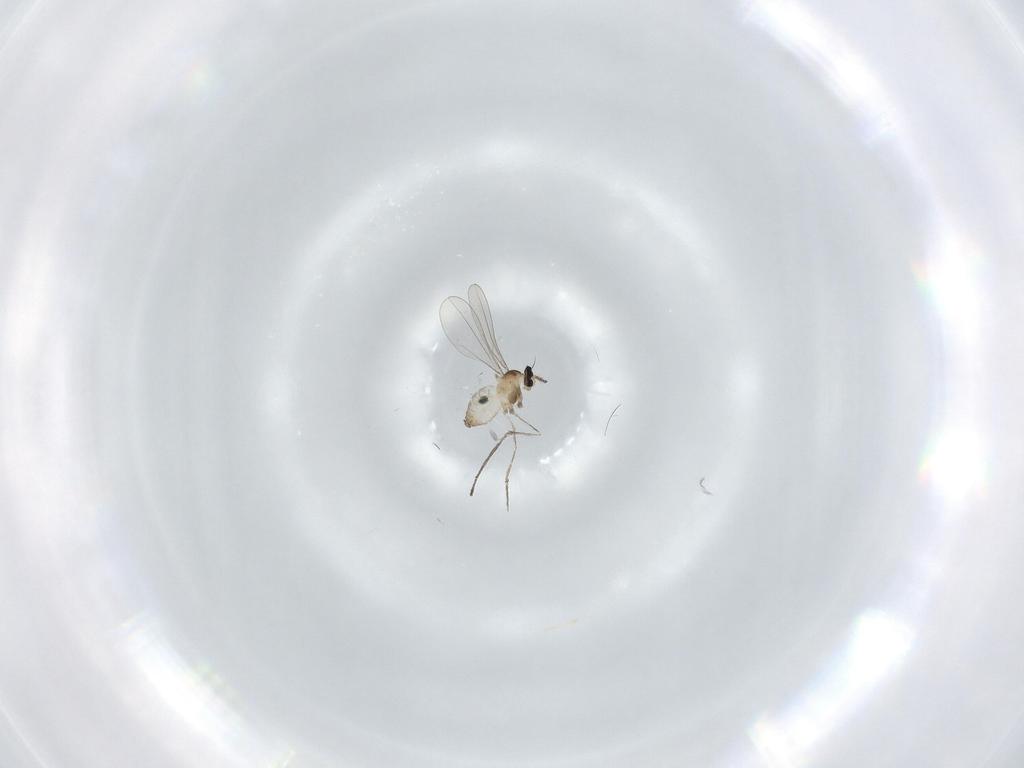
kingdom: Animalia
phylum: Arthropoda
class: Insecta
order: Diptera
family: Cecidomyiidae
